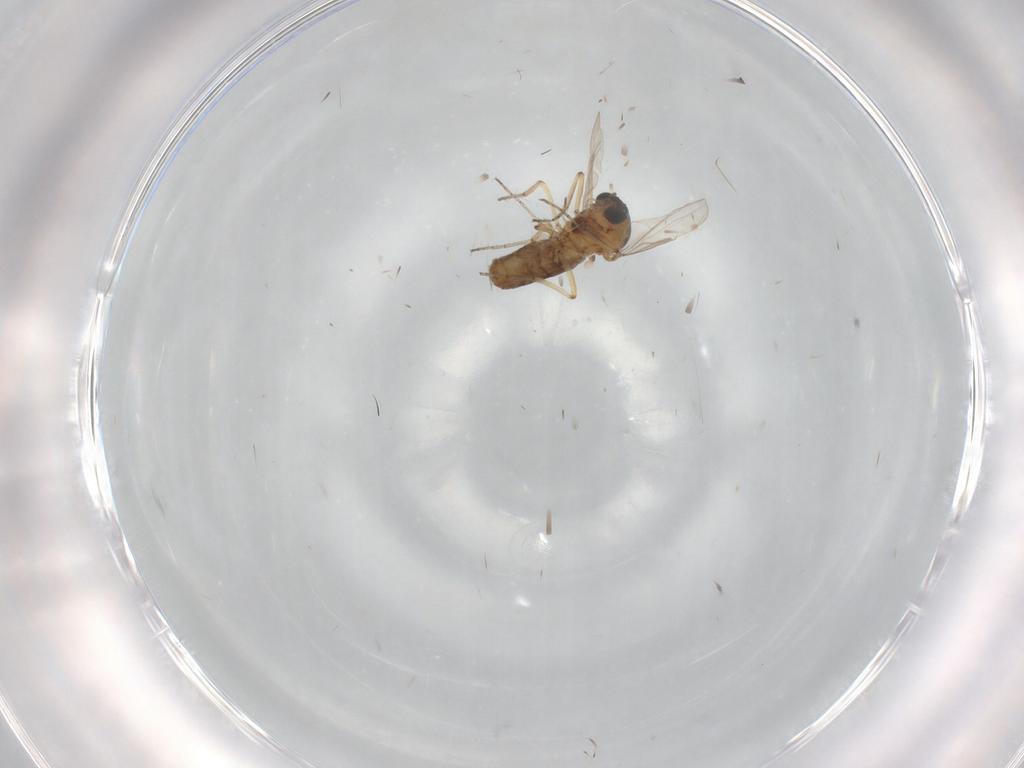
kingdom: Animalia
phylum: Arthropoda
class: Insecta
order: Diptera
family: Ceratopogonidae
